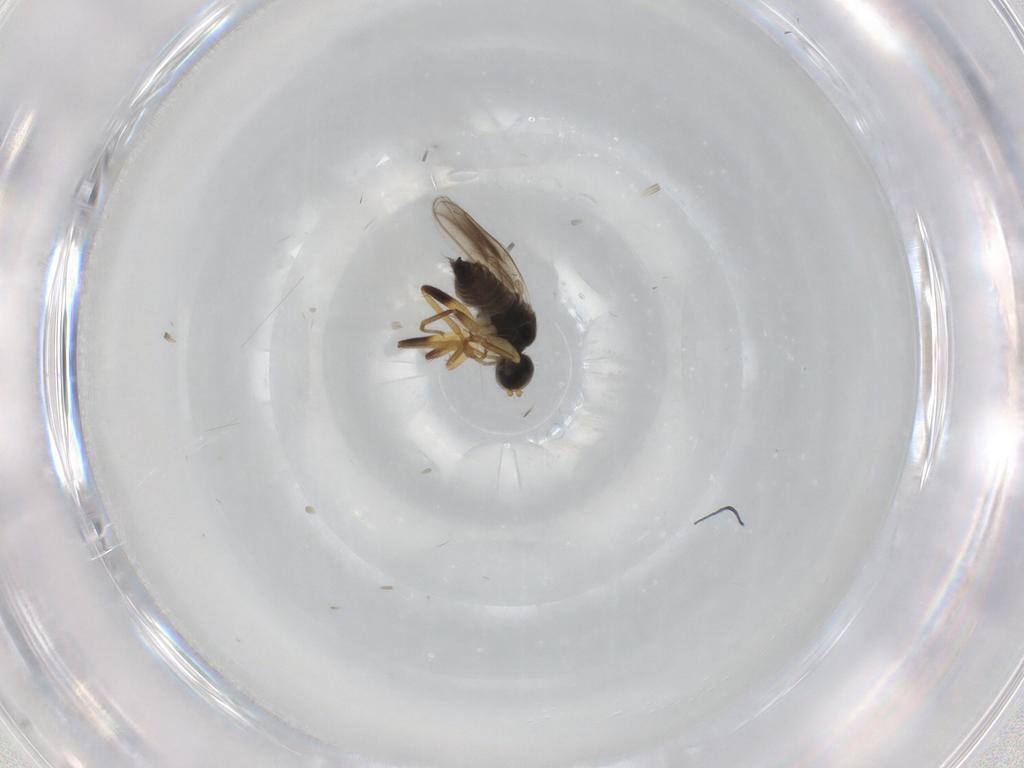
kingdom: Animalia
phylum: Arthropoda
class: Insecta
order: Diptera
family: Hybotidae
